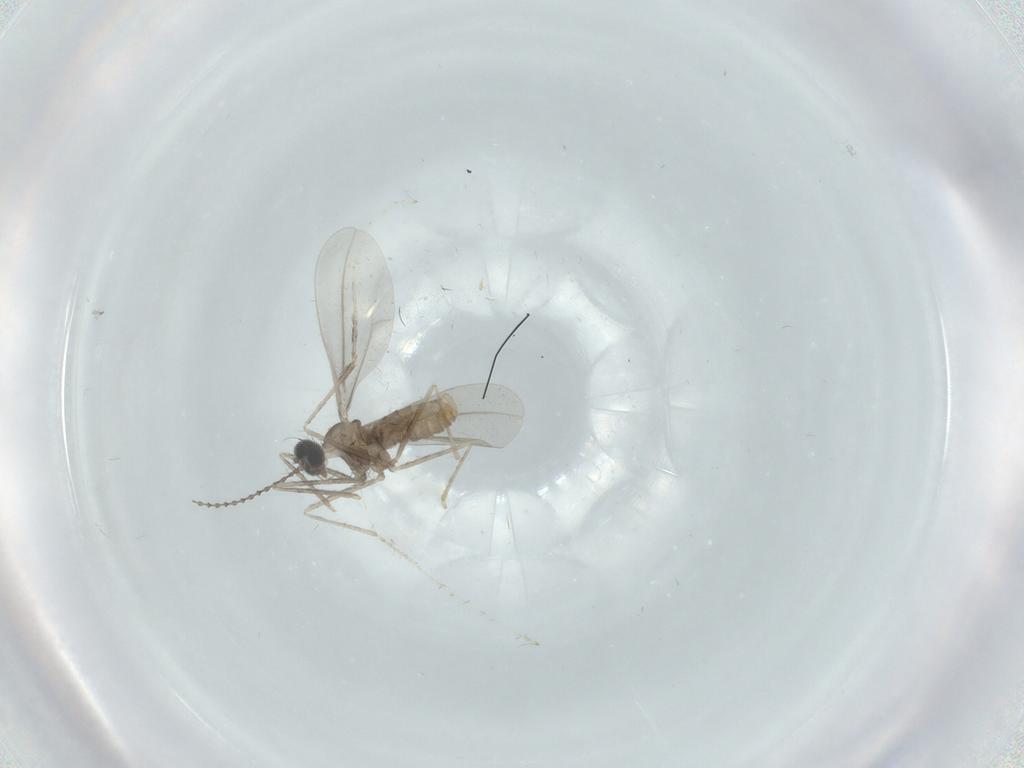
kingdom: Animalia
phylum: Arthropoda
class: Insecta
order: Diptera
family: Cecidomyiidae
